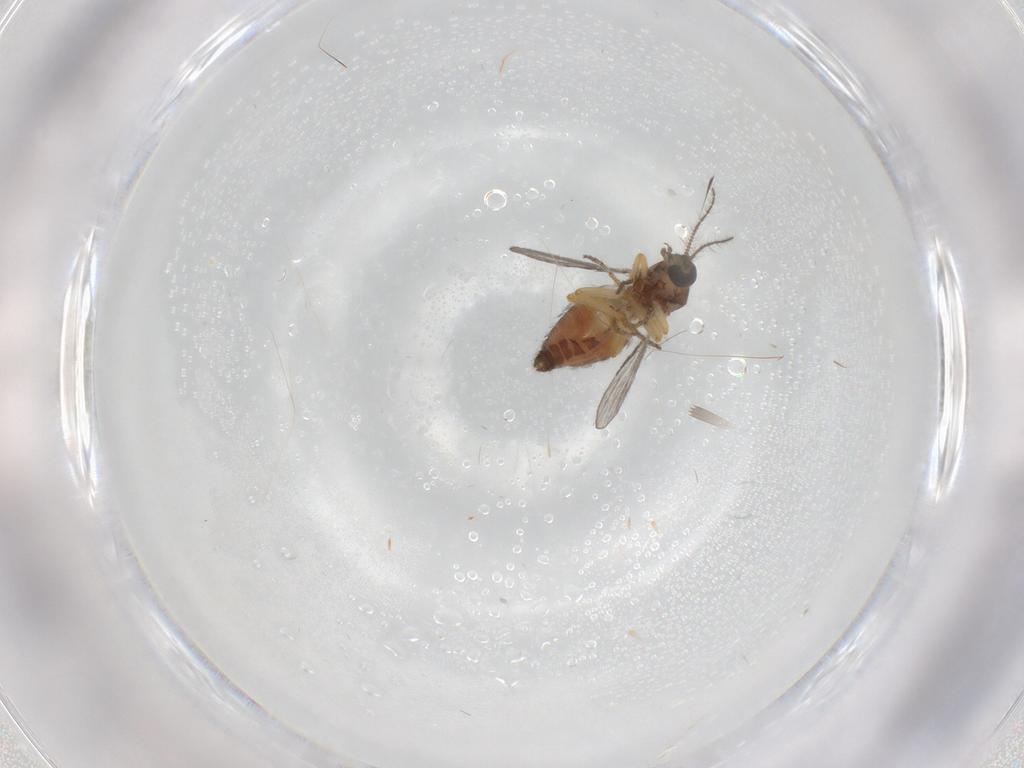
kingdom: Animalia
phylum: Arthropoda
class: Insecta
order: Diptera
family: Ceratopogonidae
